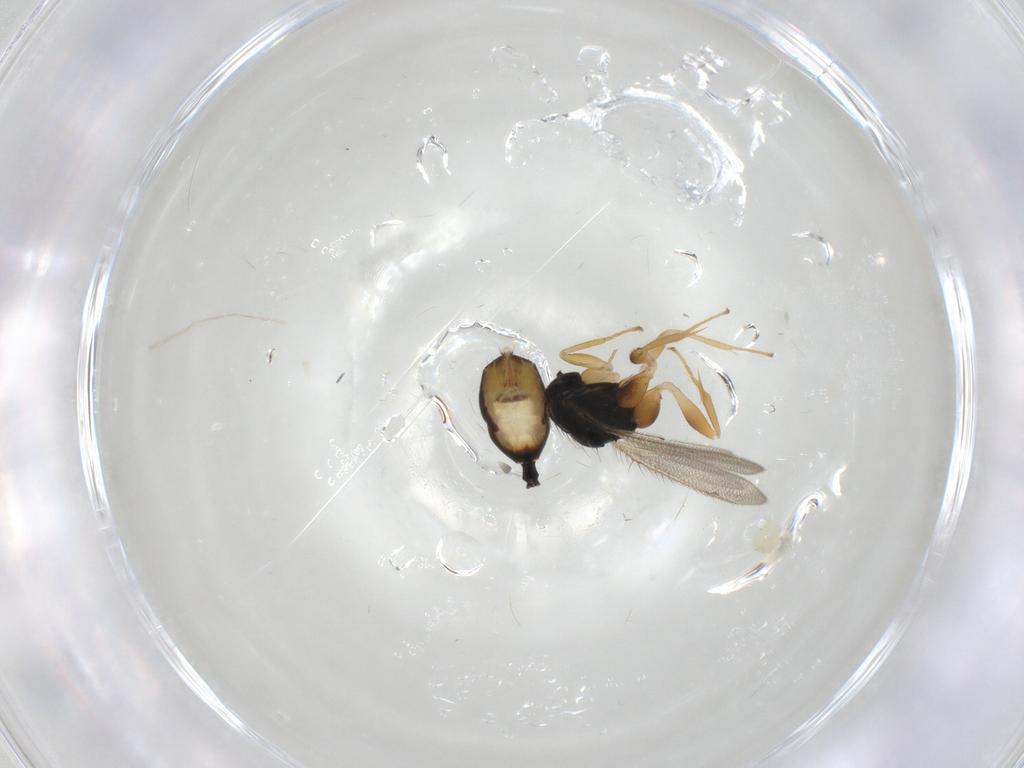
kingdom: Animalia
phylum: Arthropoda
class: Insecta
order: Hymenoptera
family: Eulophidae
